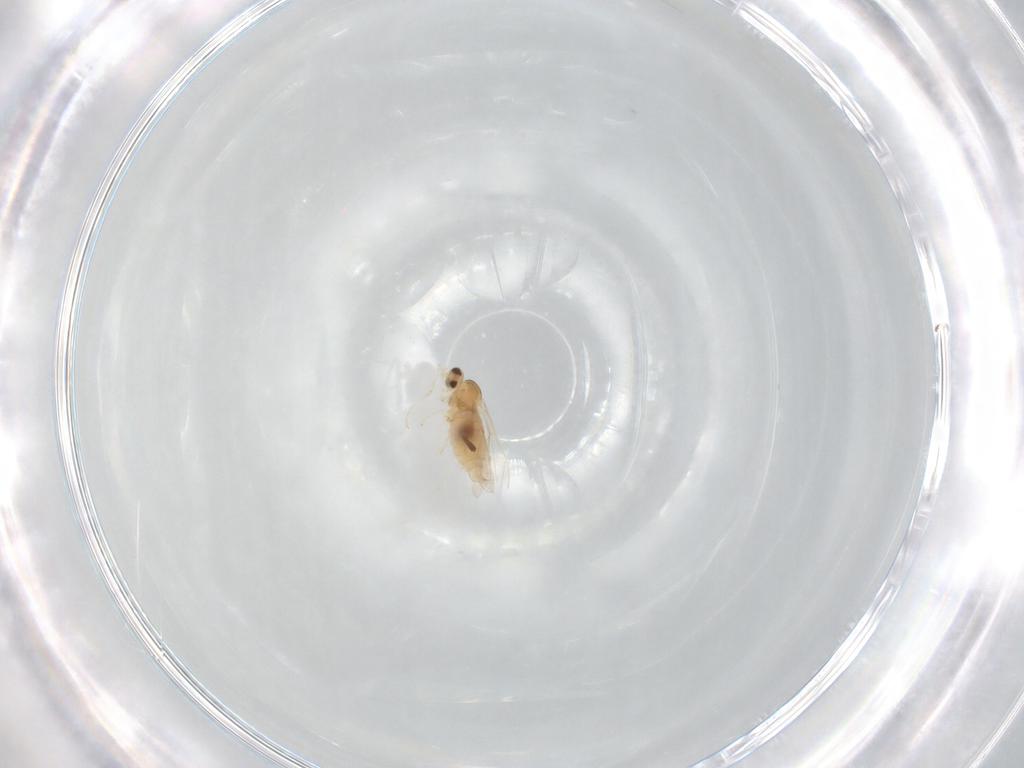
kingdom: Animalia
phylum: Arthropoda
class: Insecta
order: Diptera
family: Cecidomyiidae
